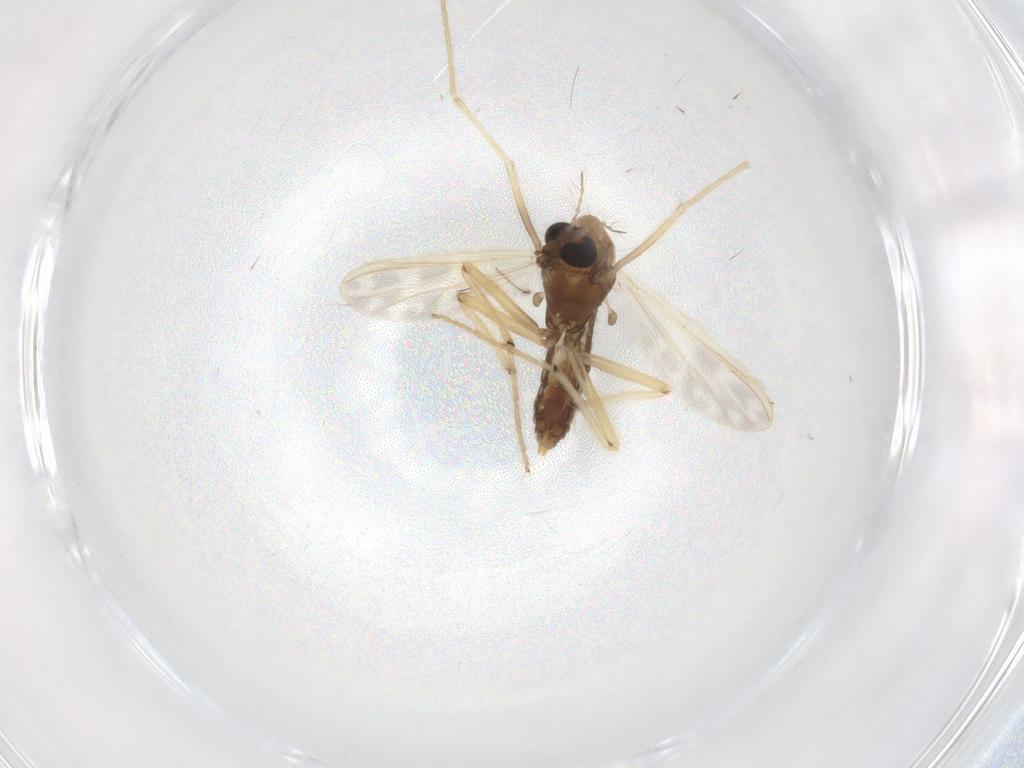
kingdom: Animalia
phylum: Arthropoda
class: Insecta
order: Diptera
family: Chironomidae
